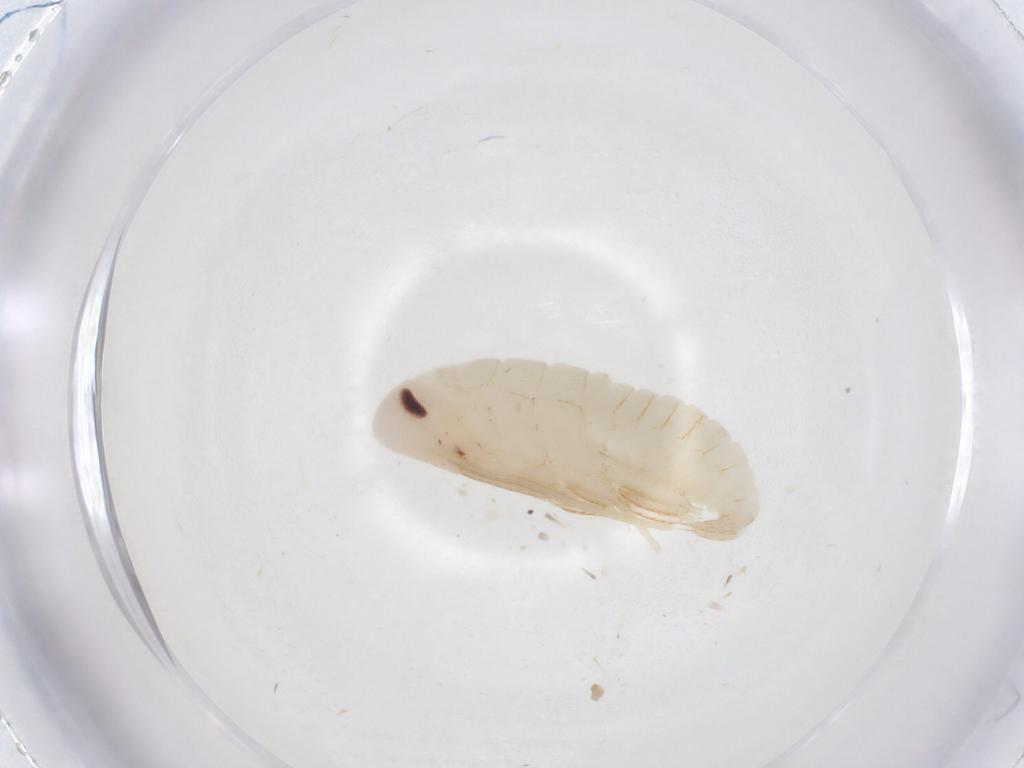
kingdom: Animalia
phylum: Arthropoda
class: Insecta
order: Blattodea
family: Ectobiidae
